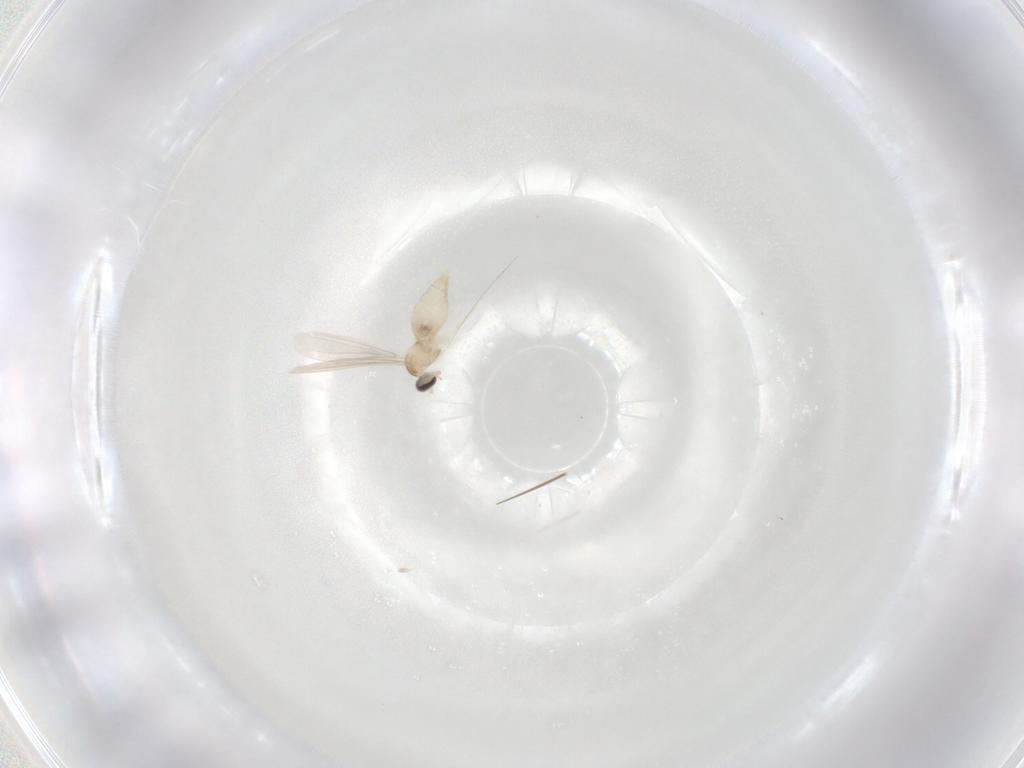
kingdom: Animalia
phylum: Arthropoda
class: Insecta
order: Diptera
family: Cecidomyiidae
